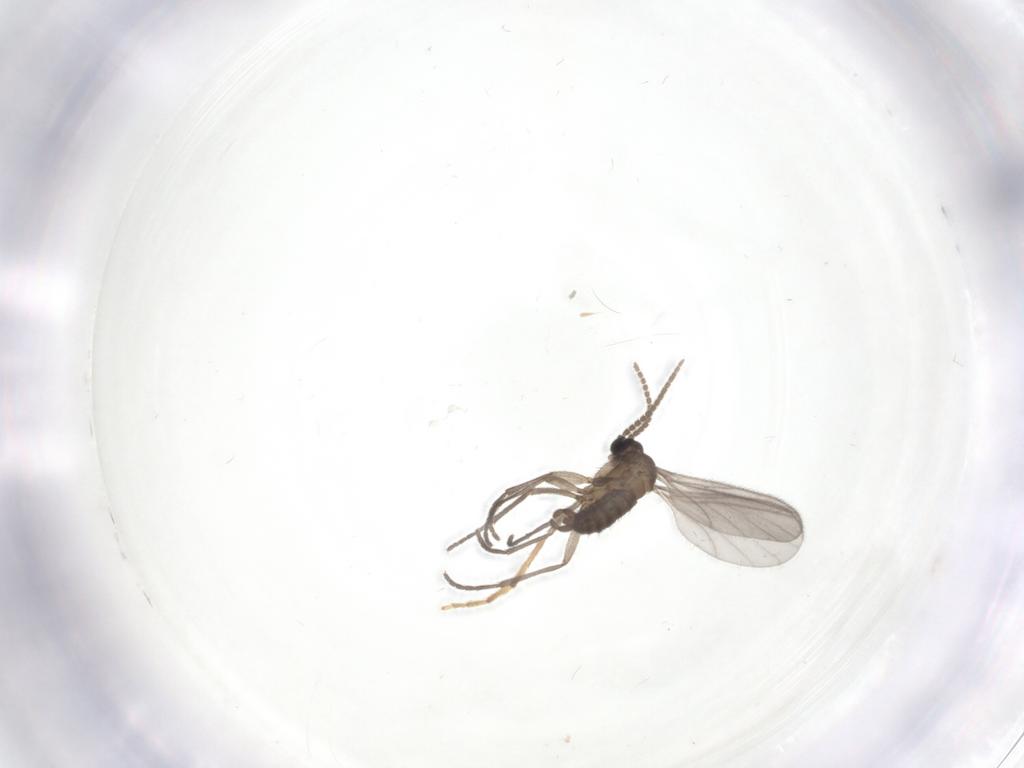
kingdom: Animalia
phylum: Arthropoda
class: Insecta
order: Diptera
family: Sciaridae
